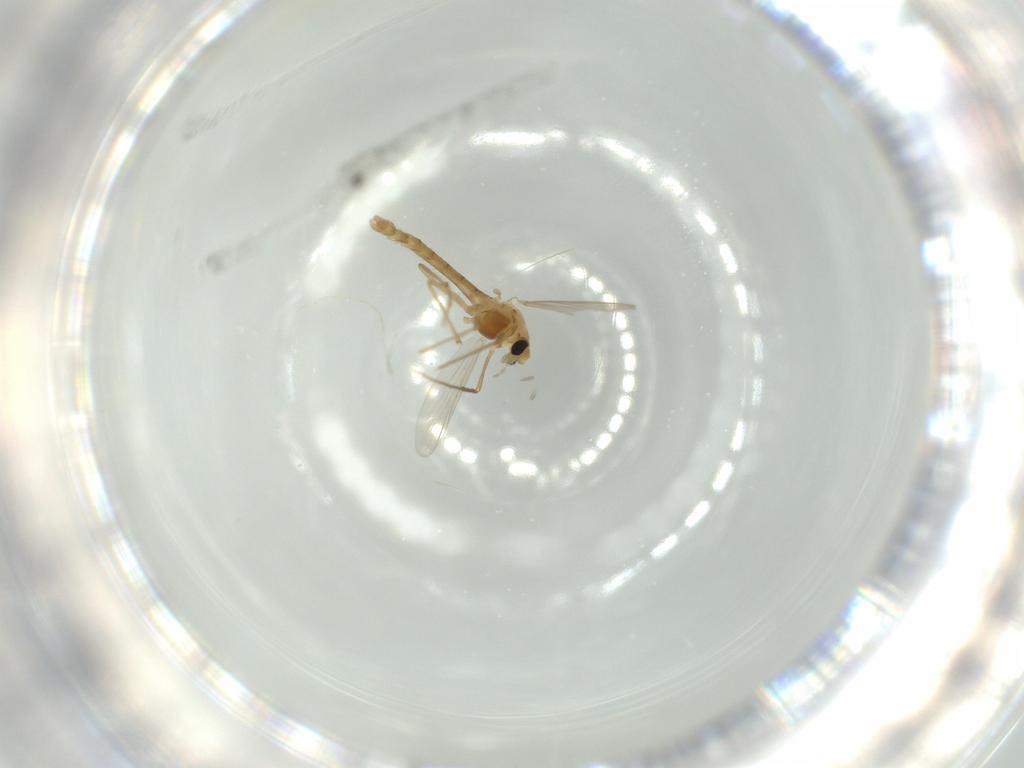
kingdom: Animalia
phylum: Arthropoda
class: Insecta
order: Diptera
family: Chironomidae
